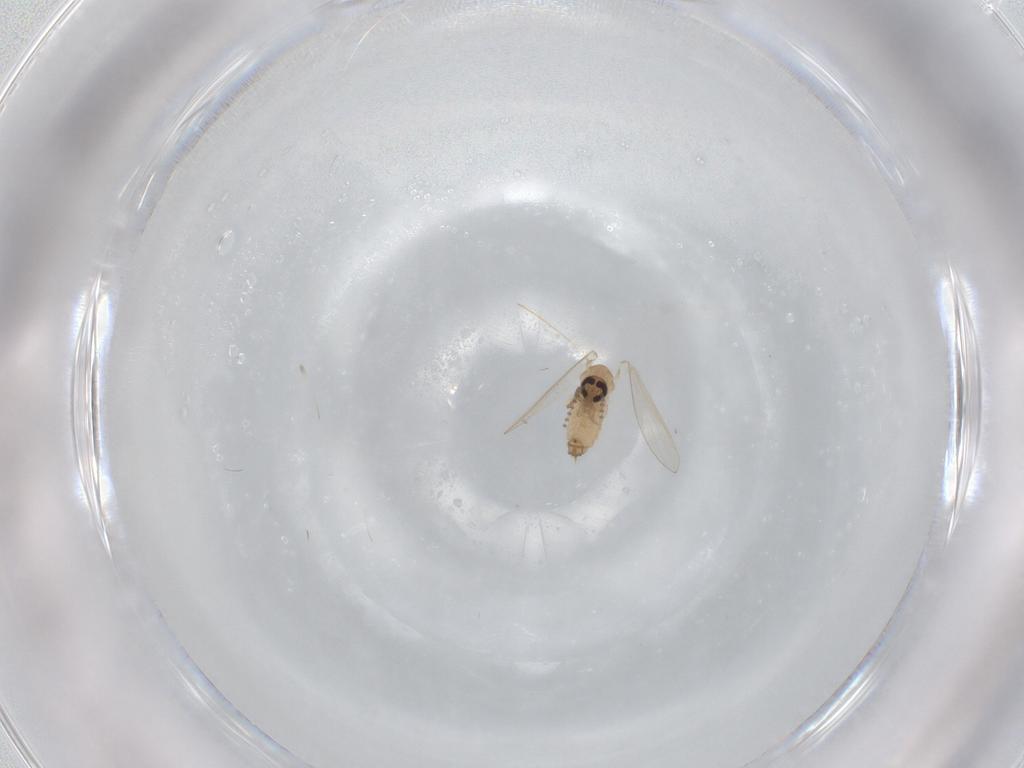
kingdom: Animalia
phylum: Arthropoda
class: Insecta
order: Diptera
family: Psychodidae
